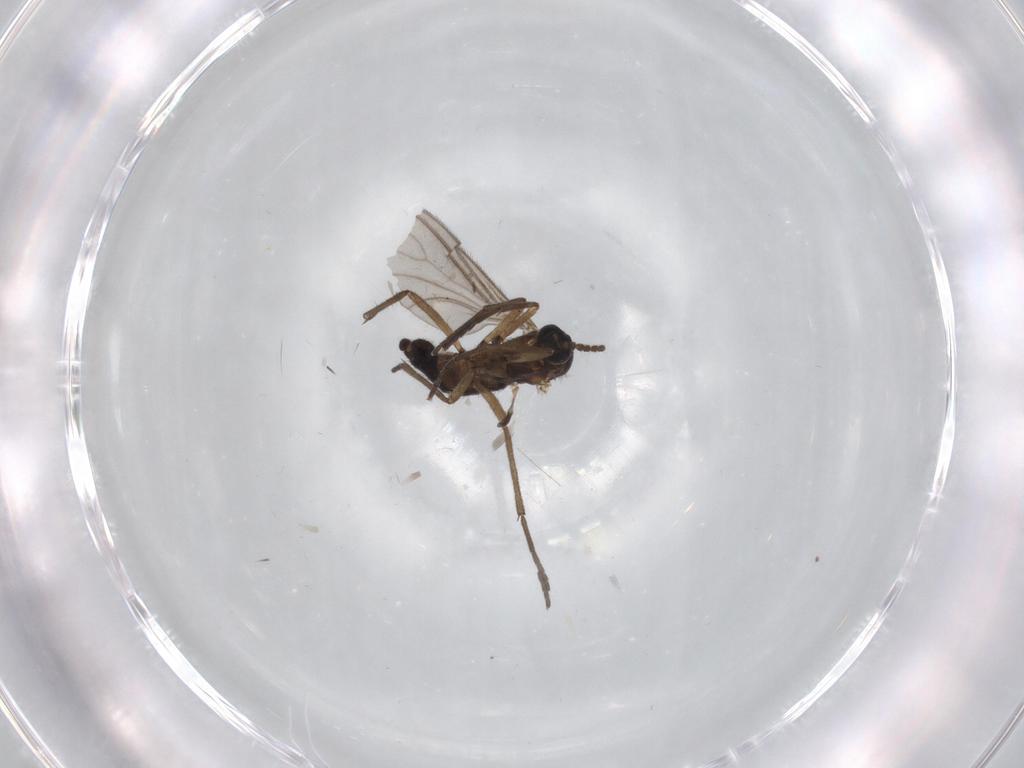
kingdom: Animalia
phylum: Arthropoda
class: Insecta
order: Diptera
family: Sciaridae
